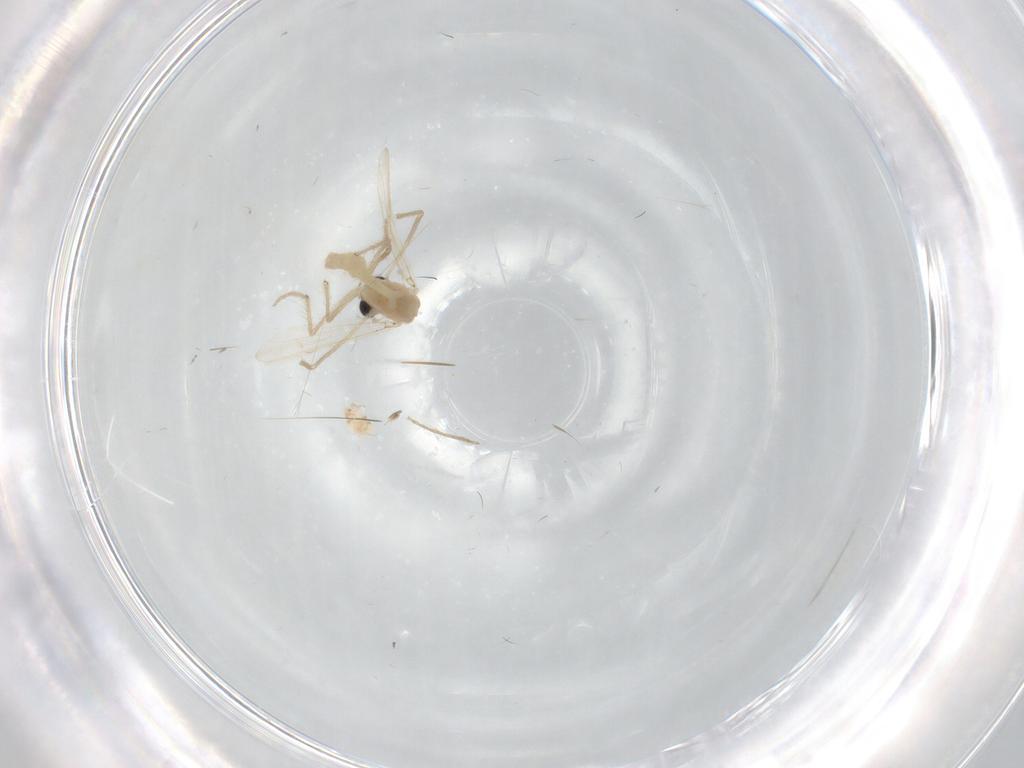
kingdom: Animalia
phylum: Arthropoda
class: Insecta
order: Diptera
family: Chironomidae
